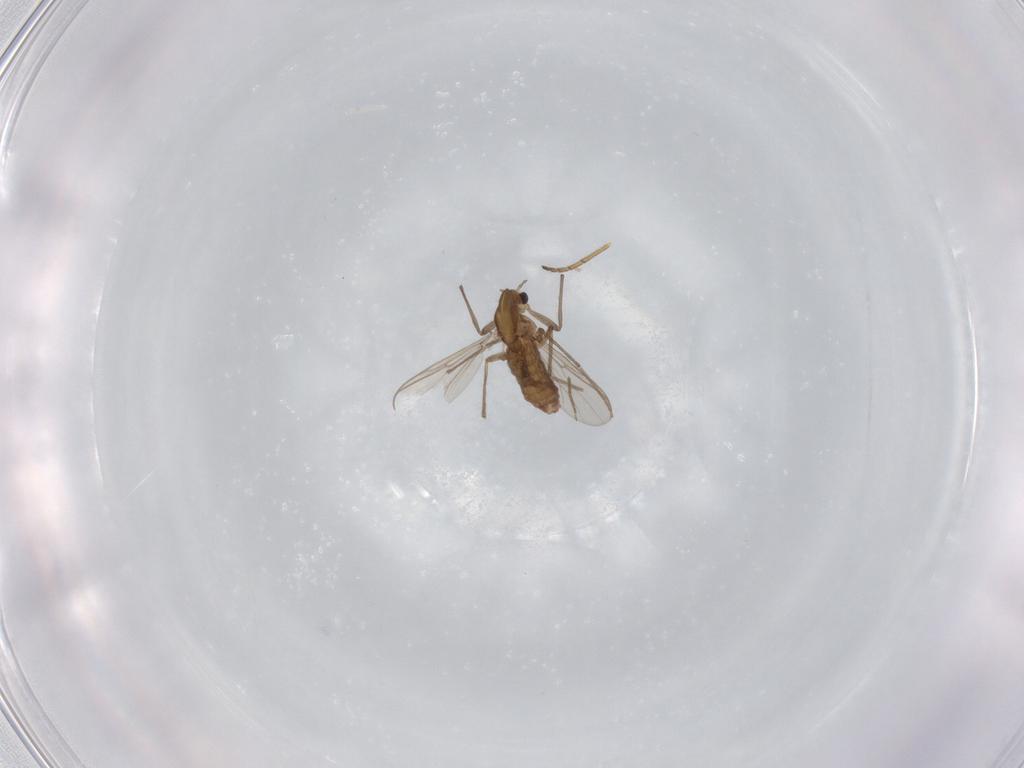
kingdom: Animalia
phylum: Arthropoda
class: Insecta
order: Diptera
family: Chironomidae
